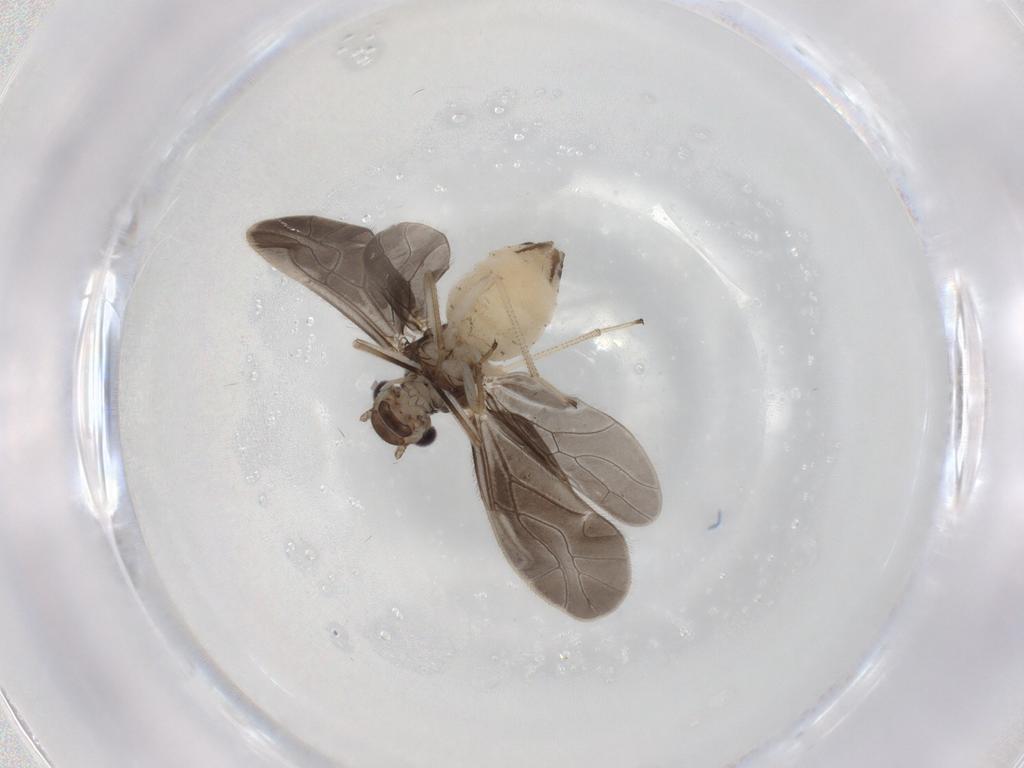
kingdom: Animalia
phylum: Arthropoda
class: Insecta
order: Psocodea
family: Caeciliusidae
